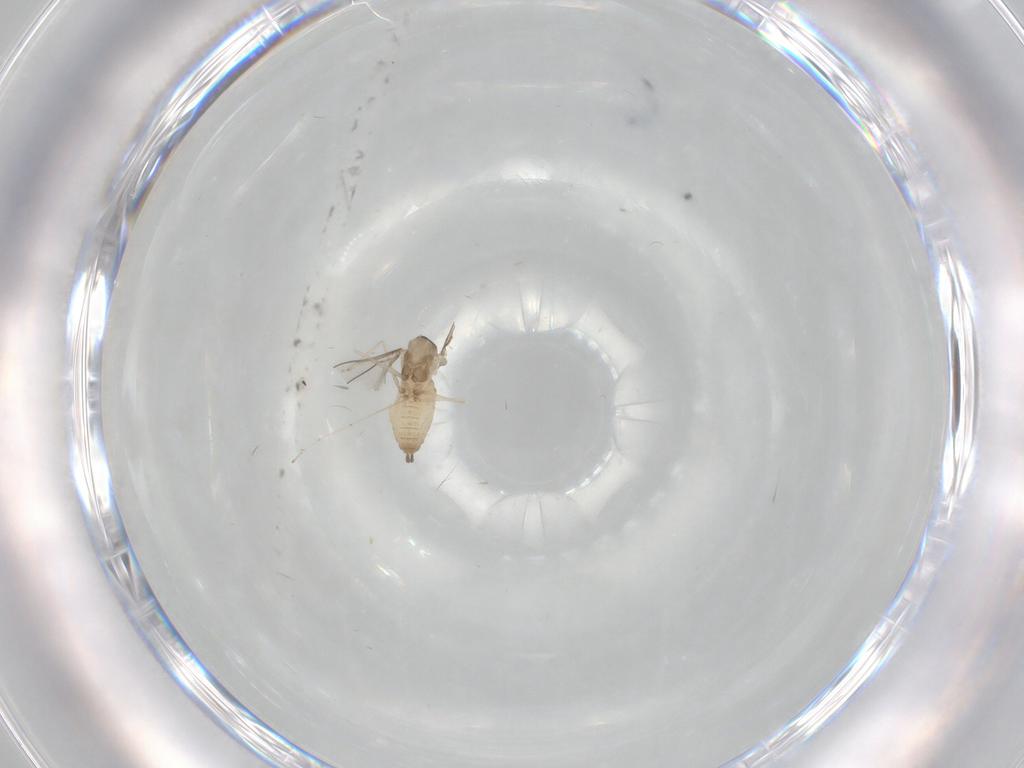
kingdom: Animalia
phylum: Arthropoda
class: Insecta
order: Diptera
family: Cecidomyiidae
